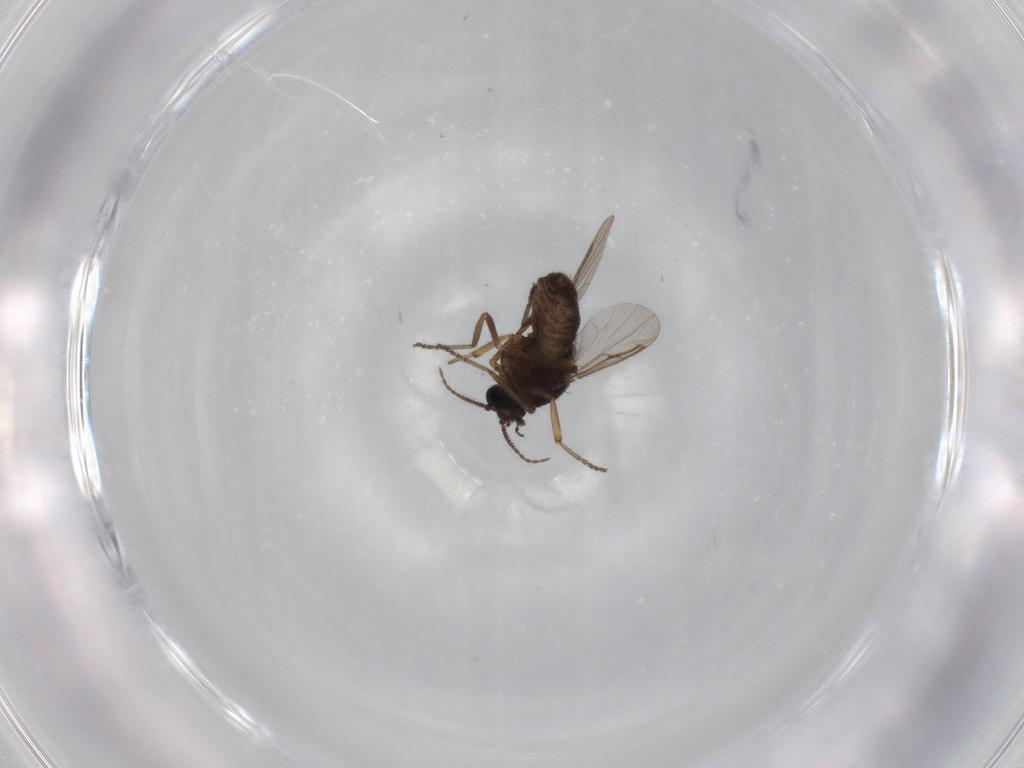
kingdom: Animalia
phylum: Arthropoda
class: Insecta
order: Diptera
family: Ceratopogonidae
